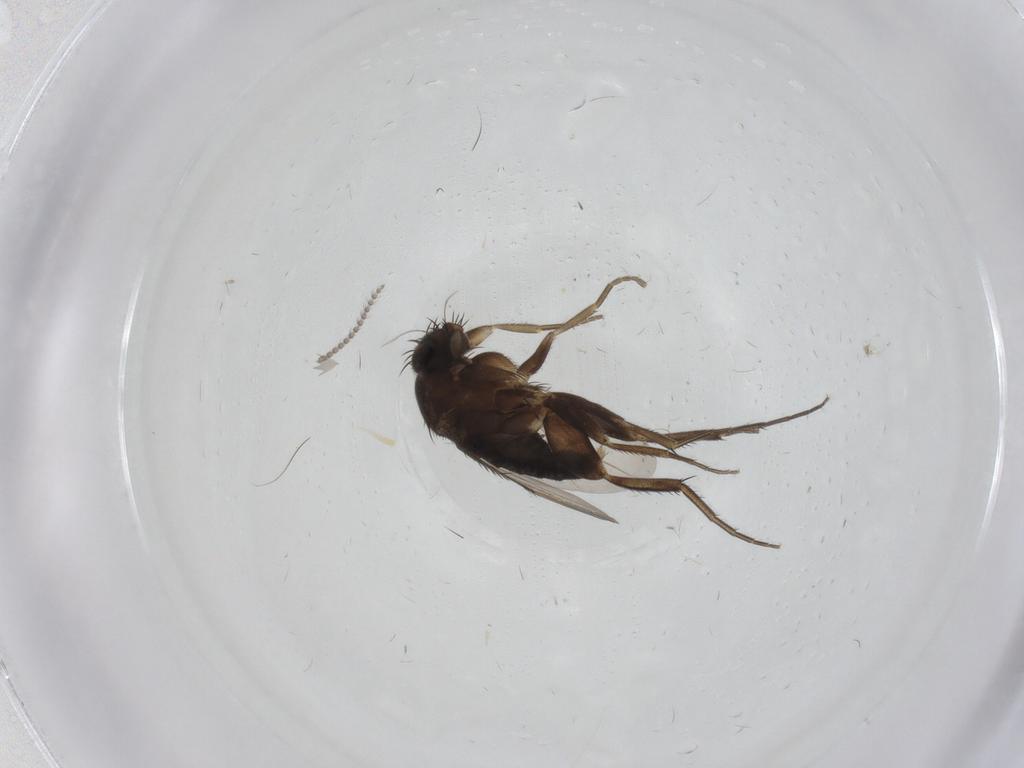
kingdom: Animalia
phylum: Arthropoda
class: Insecta
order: Diptera
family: Phoridae
